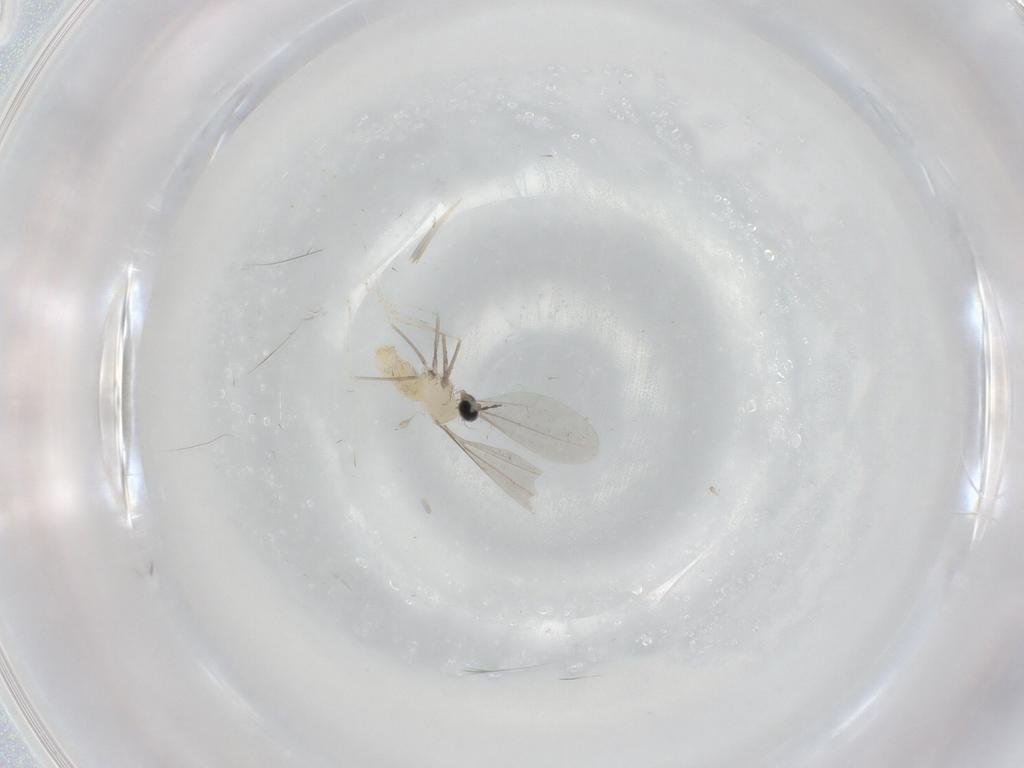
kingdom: Animalia
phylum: Arthropoda
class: Insecta
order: Diptera
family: Cecidomyiidae
